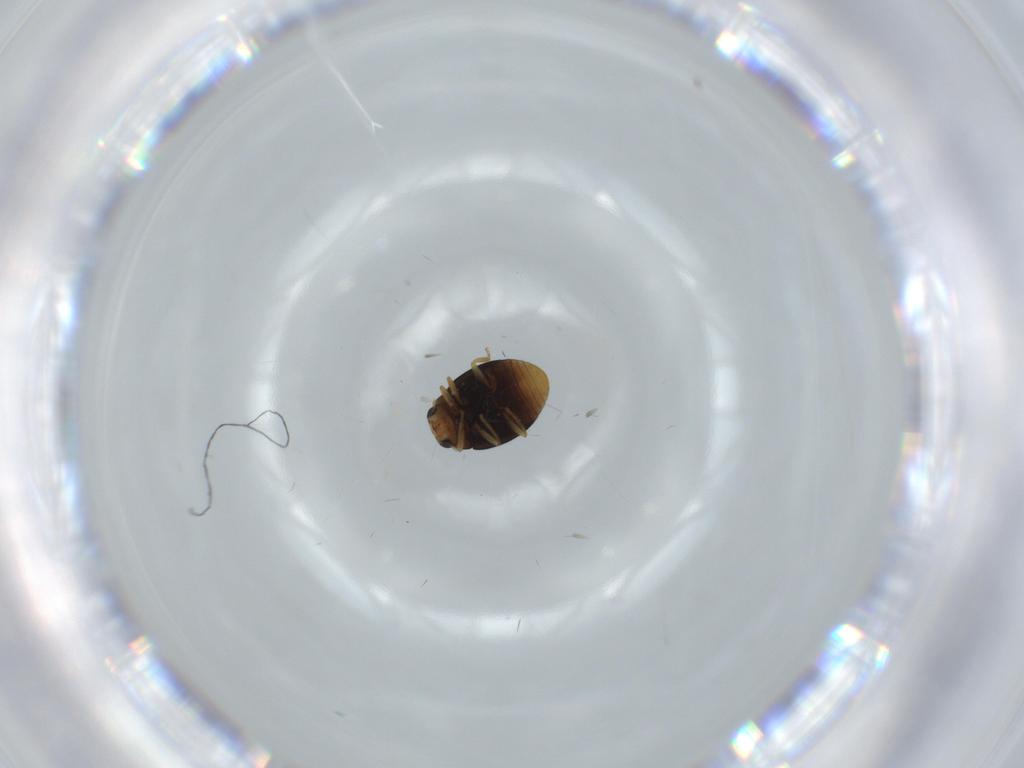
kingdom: Animalia
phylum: Arthropoda
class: Insecta
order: Coleoptera
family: Coccinellidae
